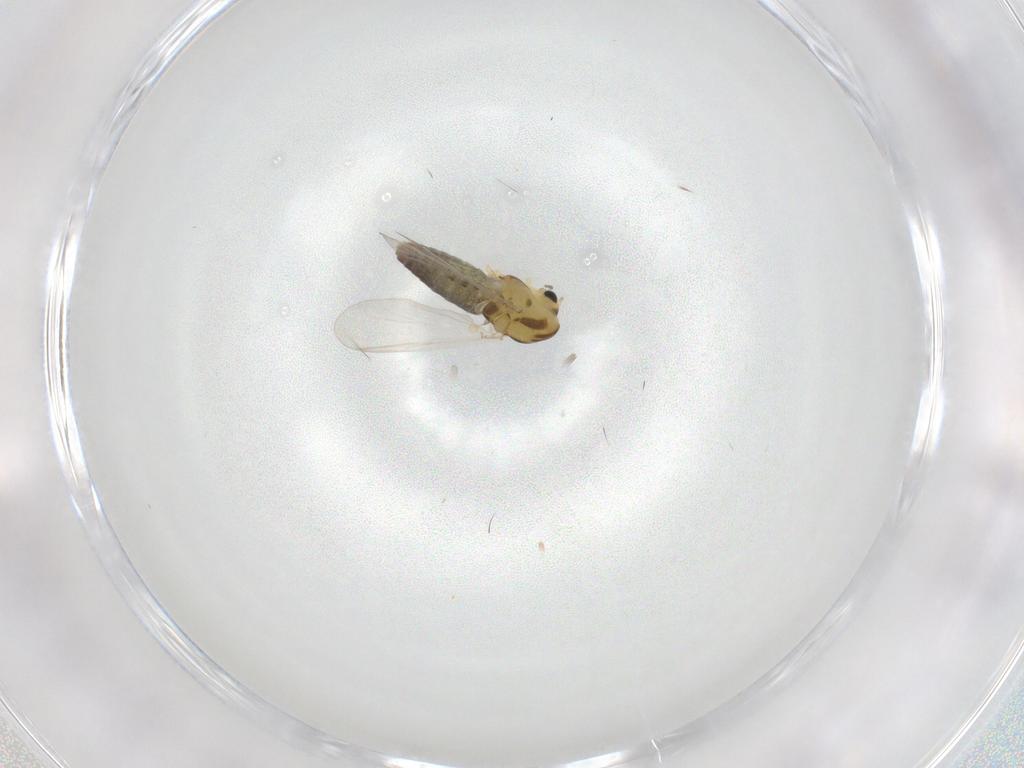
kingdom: Animalia
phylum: Arthropoda
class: Insecta
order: Diptera
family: Chironomidae
